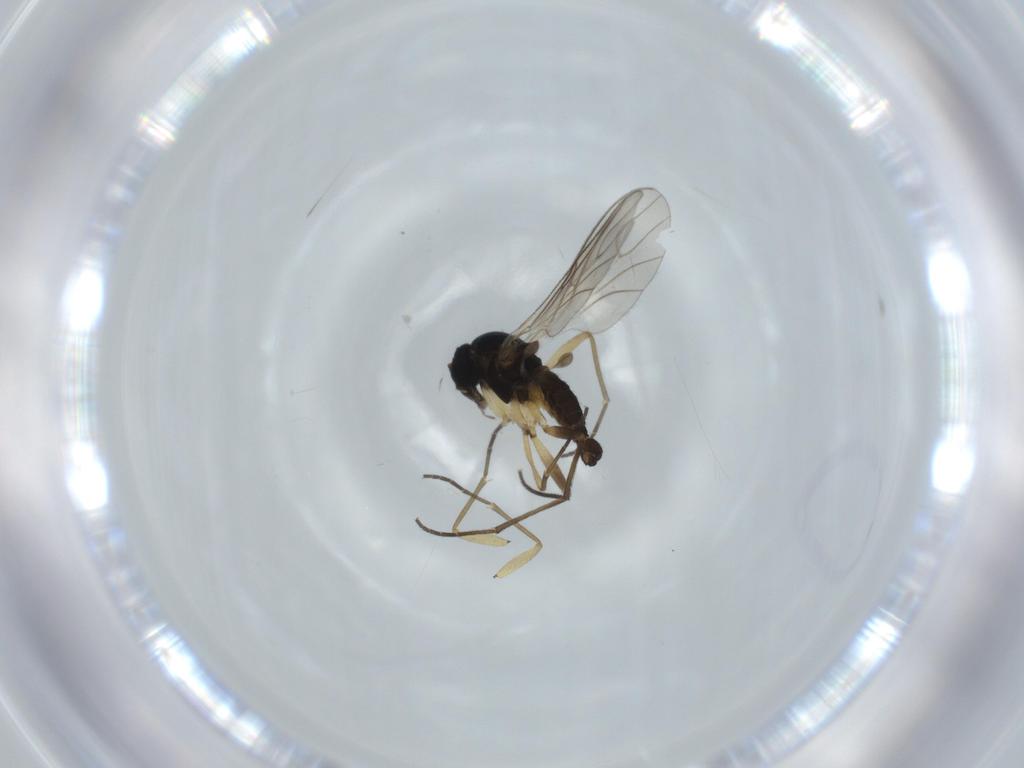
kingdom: Animalia
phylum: Arthropoda
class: Insecta
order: Diptera
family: Sciaridae
